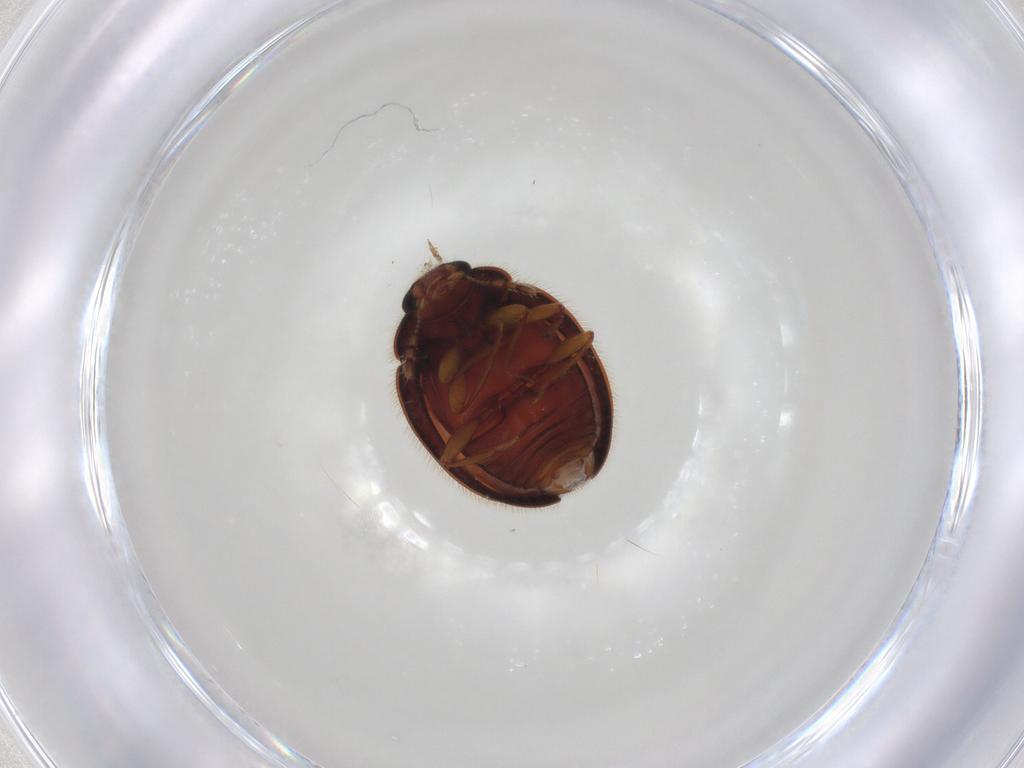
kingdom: Animalia
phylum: Arthropoda
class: Insecta
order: Coleoptera
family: Anamorphidae
